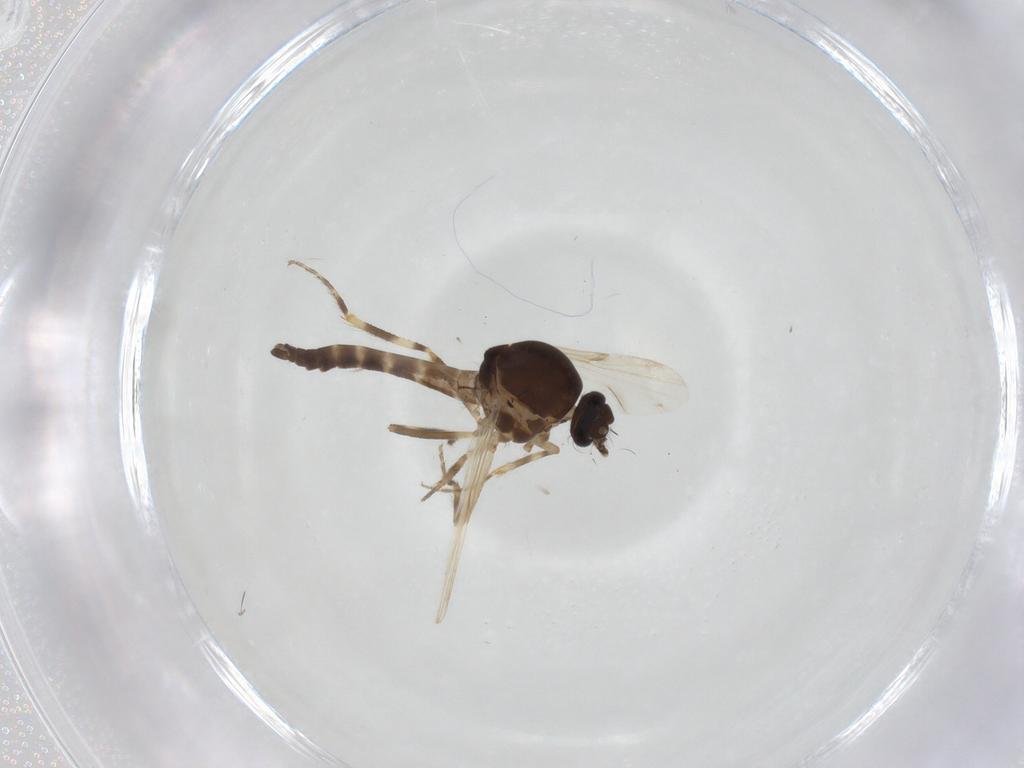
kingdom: Animalia
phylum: Arthropoda
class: Insecta
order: Diptera
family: Ceratopogonidae
